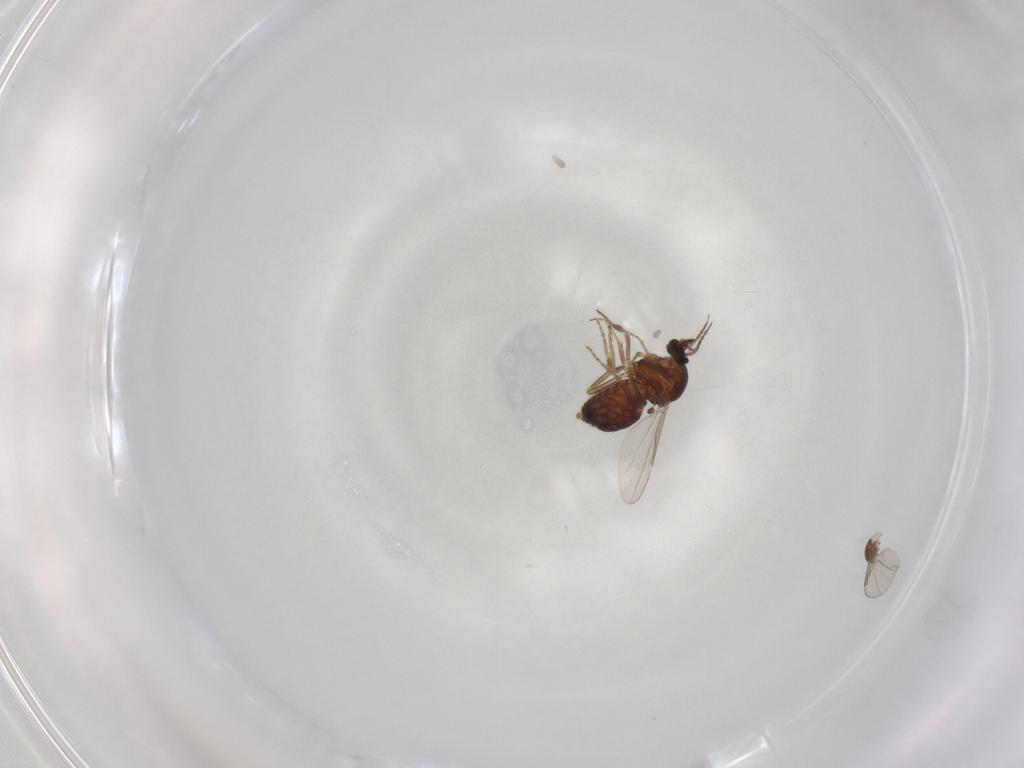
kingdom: Animalia
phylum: Arthropoda
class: Insecta
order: Diptera
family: Ceratopogonidae
